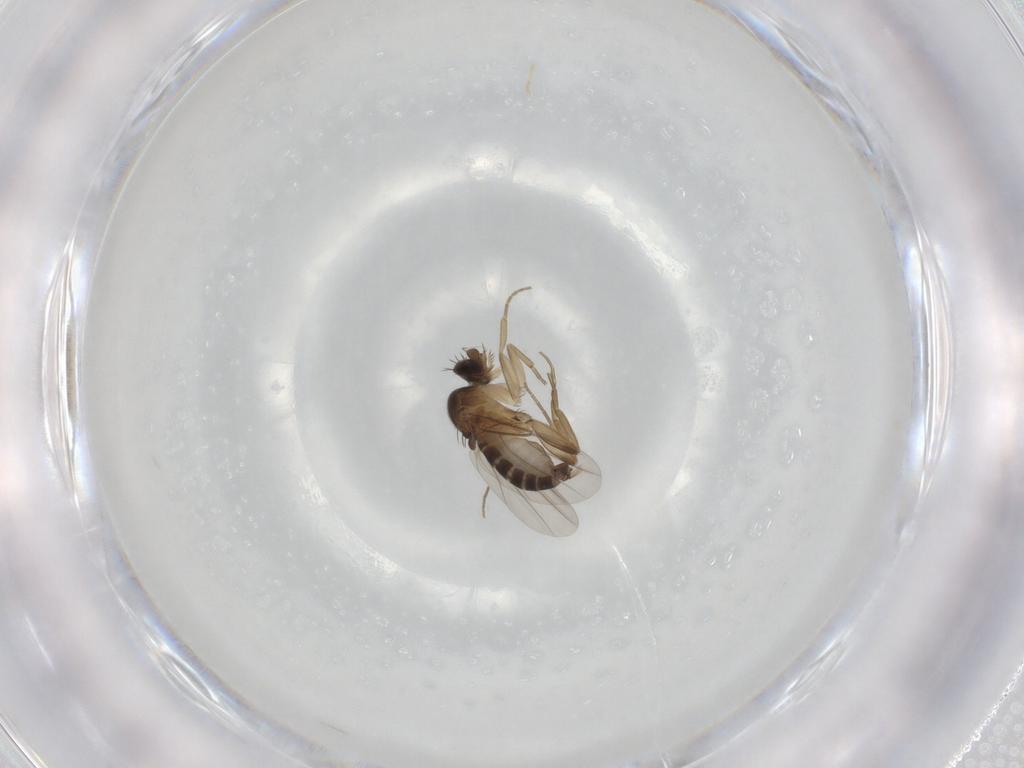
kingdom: Animalia
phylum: Arthropoda
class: Insecta
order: Diptera
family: Phoridae
